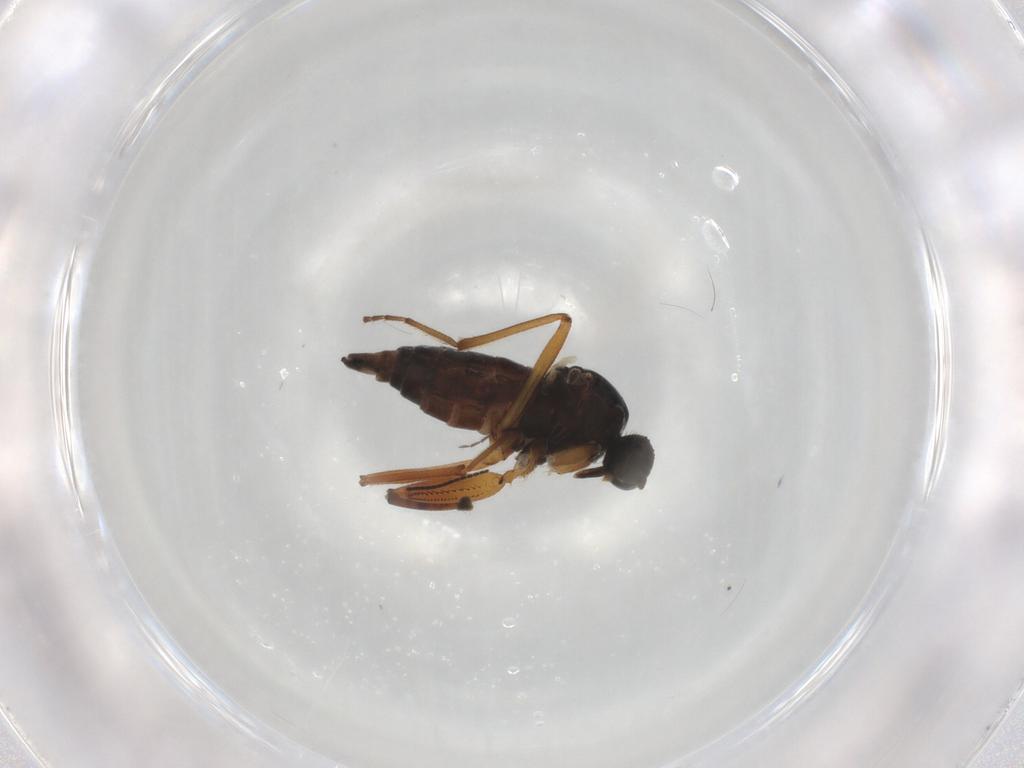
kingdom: Animalia
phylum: Arthropoda
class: Insecta
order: Diptera
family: Hybotidae
